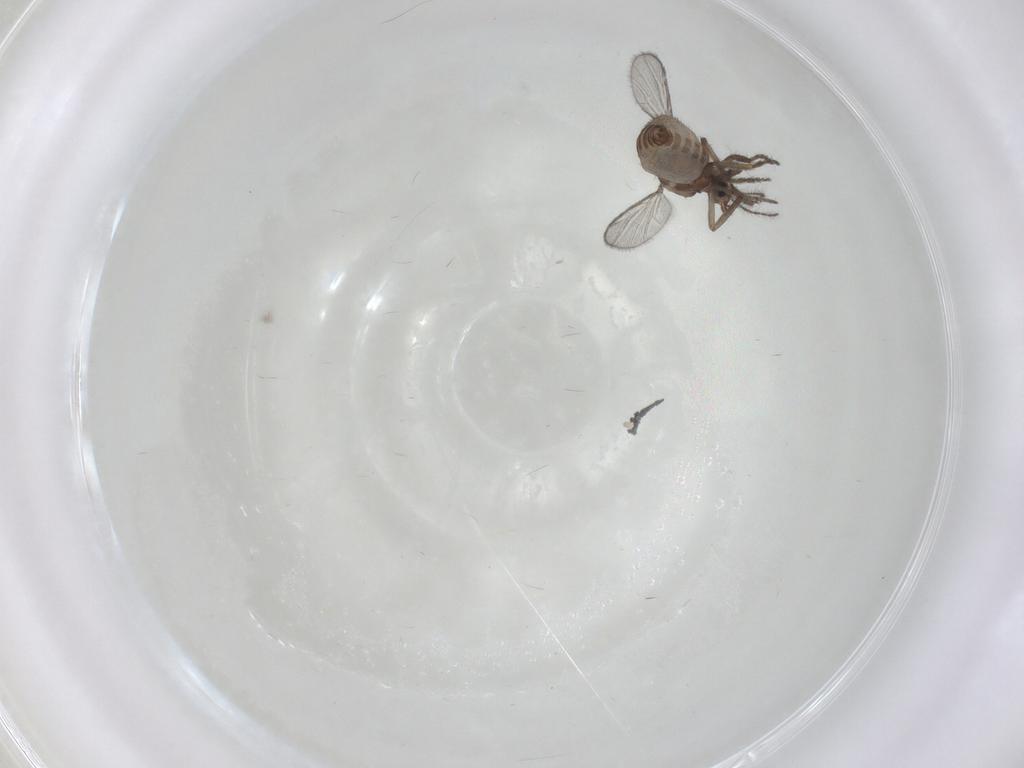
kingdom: Animalia
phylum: Arthropoda
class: Insecta
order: Diptera
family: Ceratopogonidae
